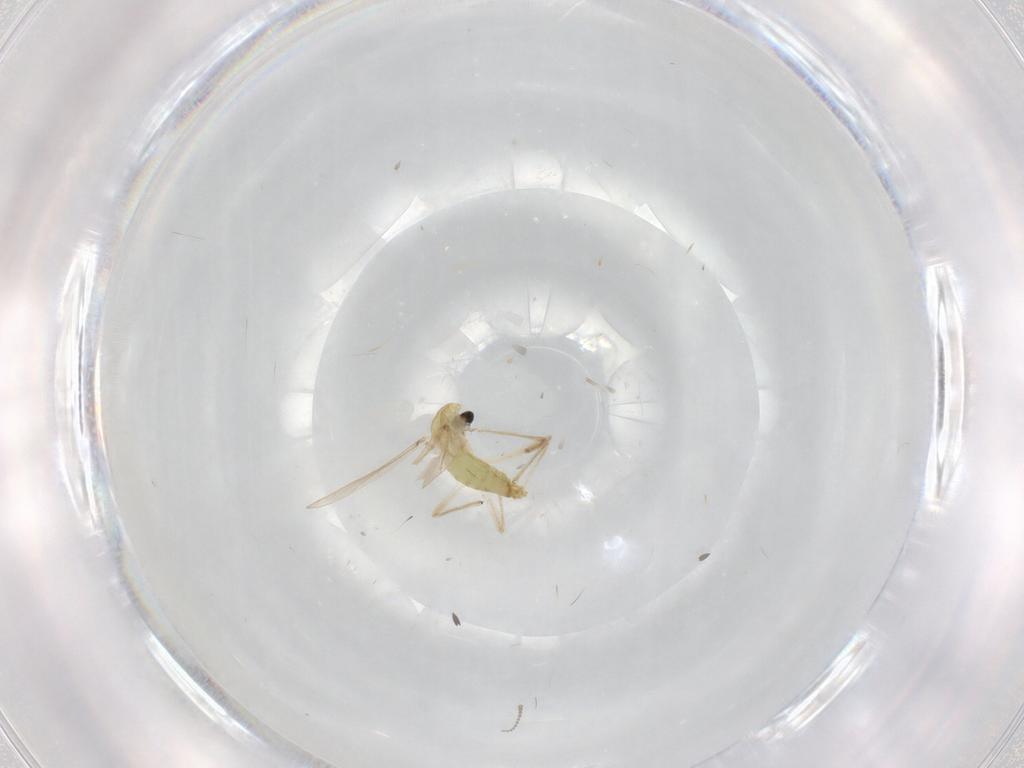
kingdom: Animalia
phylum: Arthropoda
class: Insecta
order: Diptera
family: Chironomidae
